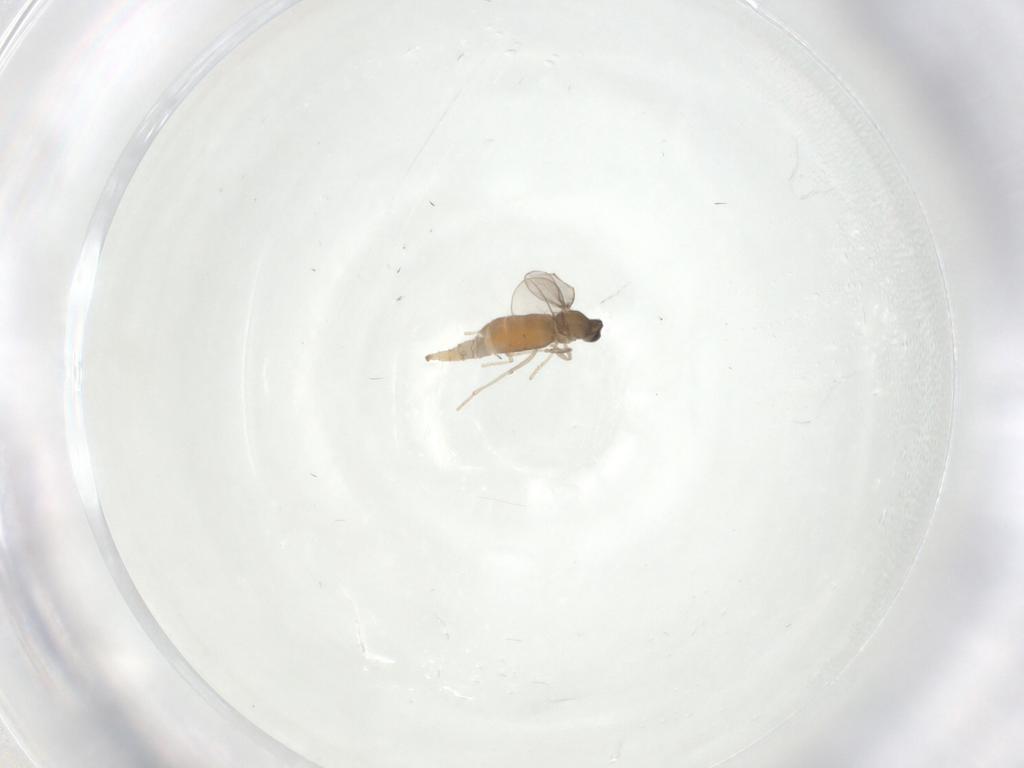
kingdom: Animalia
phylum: Arthropoda
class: Insecta
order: Diptera
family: Cecidomyiidae
